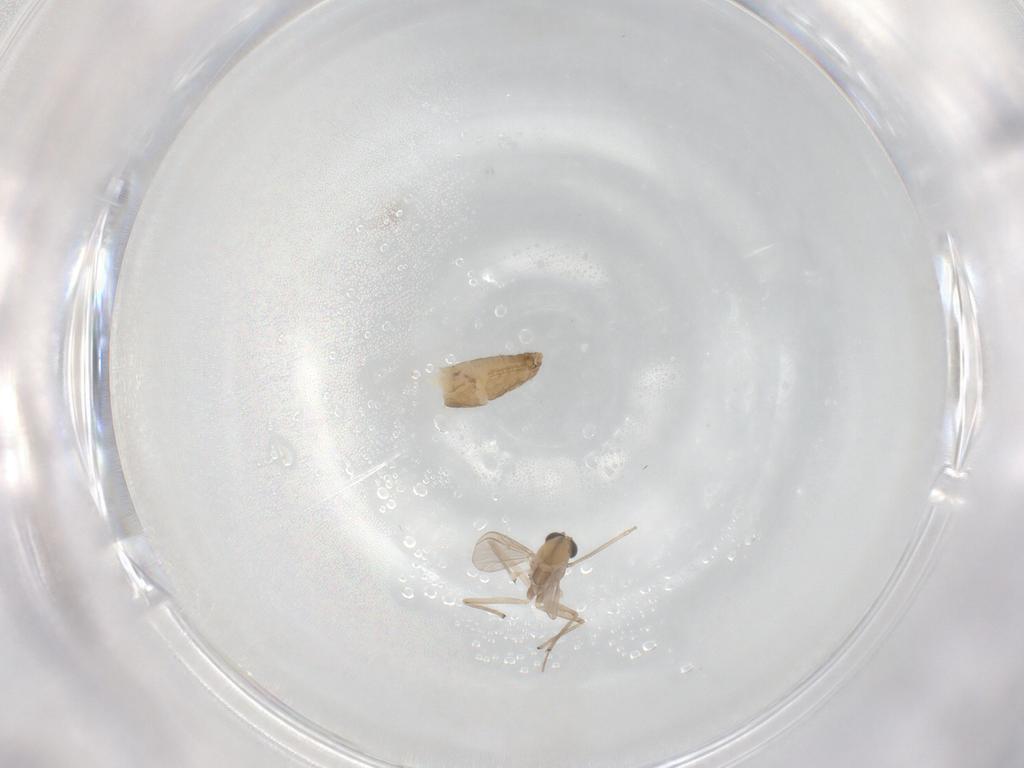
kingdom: Animalia
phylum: Arthropoda
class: Insecta
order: Diptera
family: Chironomidae
